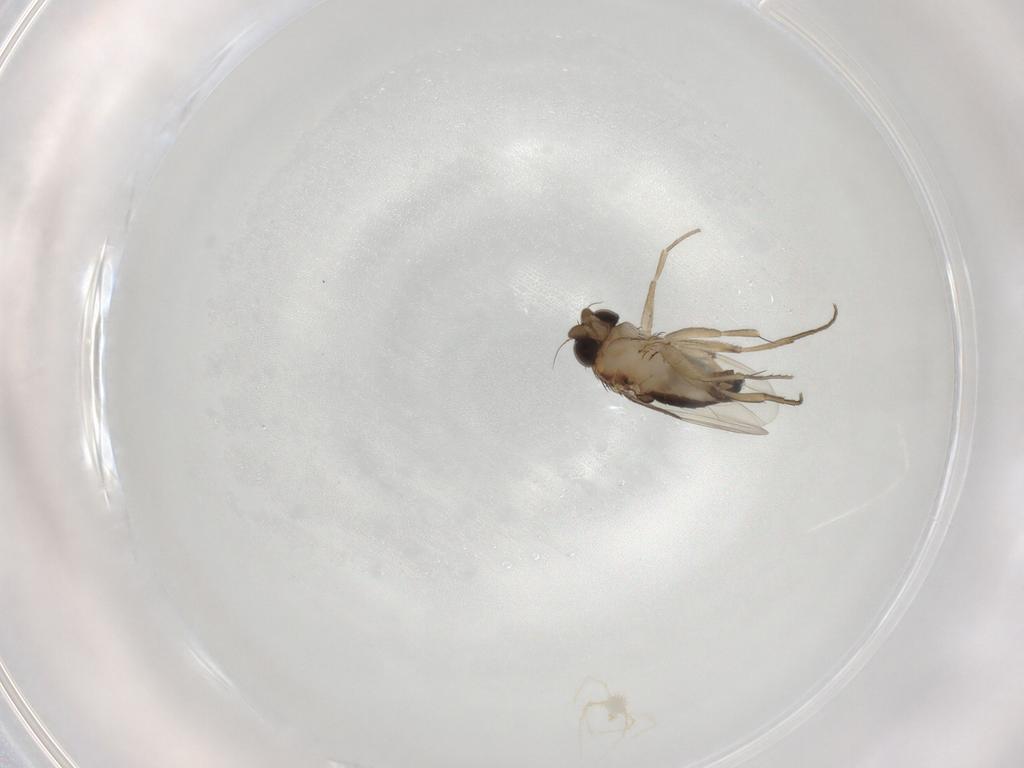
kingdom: Animalia
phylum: Arthropoda
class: Insecta
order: Diptera
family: Phoridae
